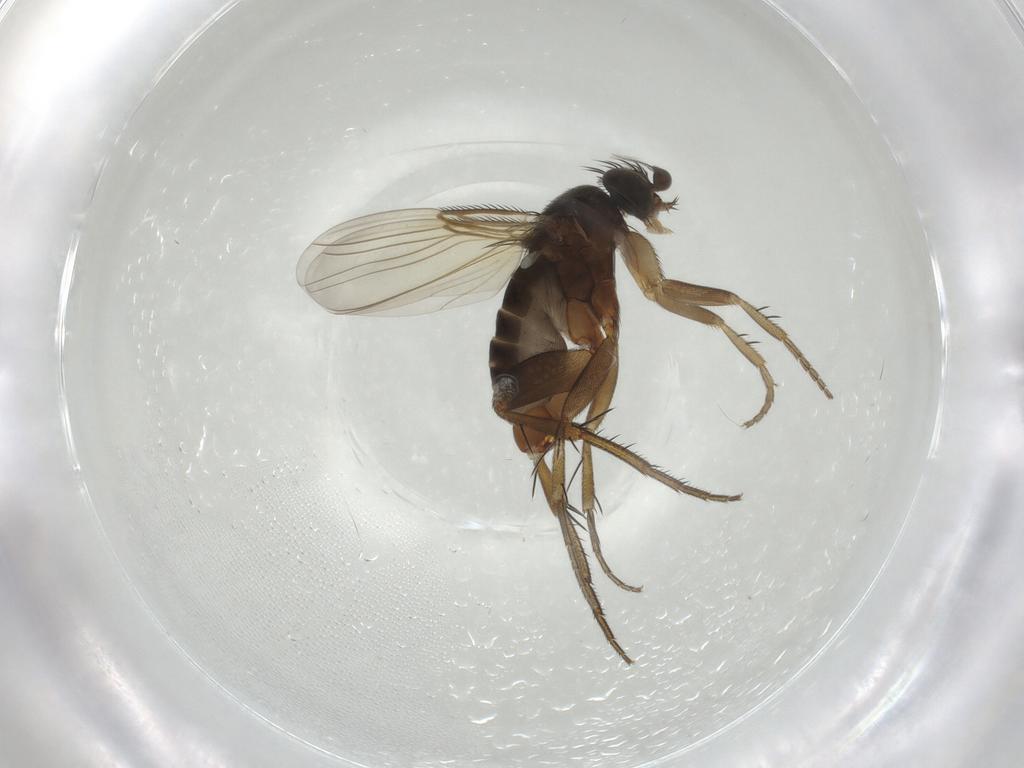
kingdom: Animalia
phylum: Arthropoda
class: Insecta
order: Diptera
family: Phoridae
